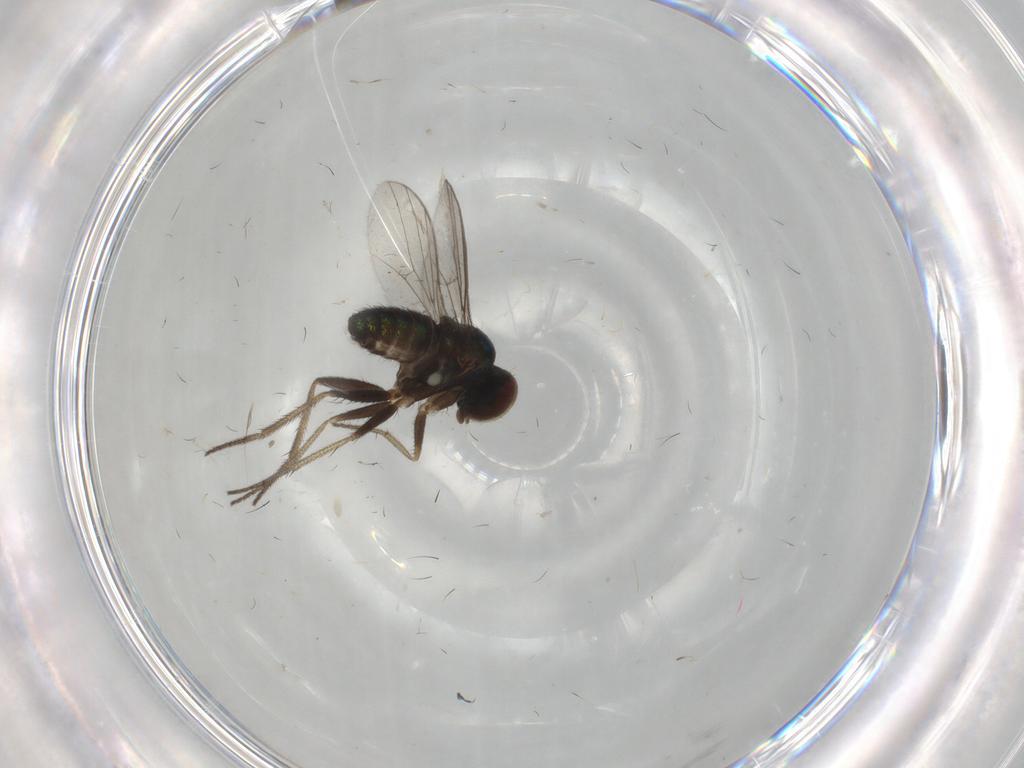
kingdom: Animalia
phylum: Arthropoda
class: Insecta
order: Diptera
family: Dolichopodidae
